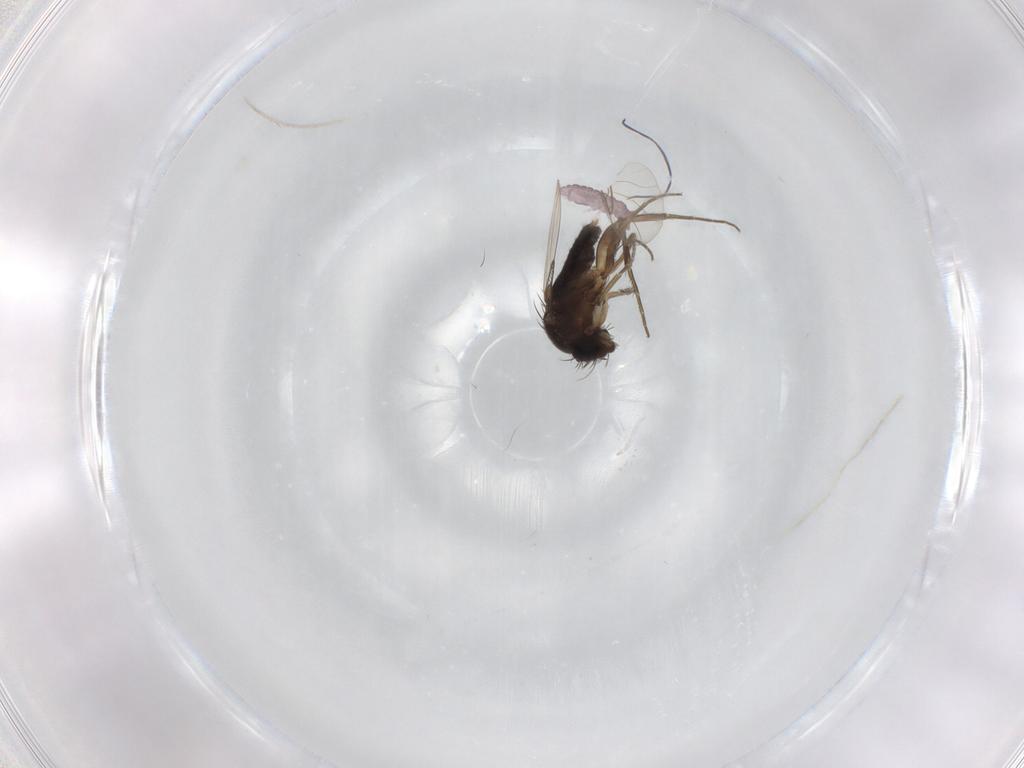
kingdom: Animalia
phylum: Arthropoda
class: Collembola
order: Poduromorpha
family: Hypogastruridae
